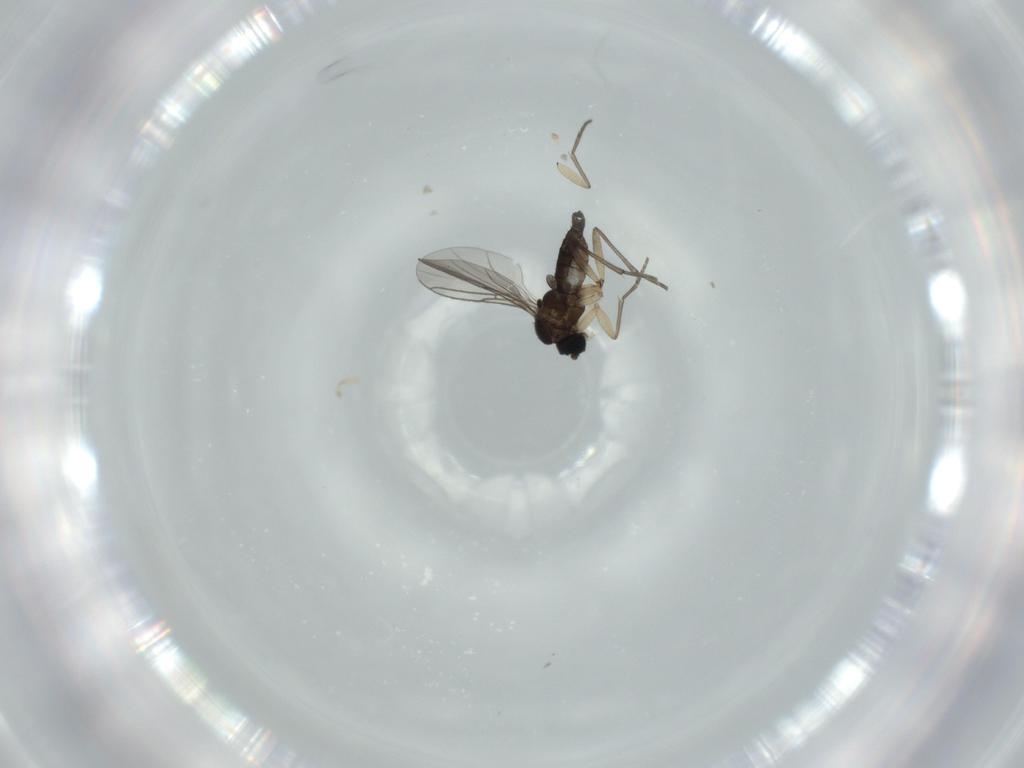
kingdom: Animalia
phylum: Arthropoda
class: Insecta
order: Diptera
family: Sciaridae
